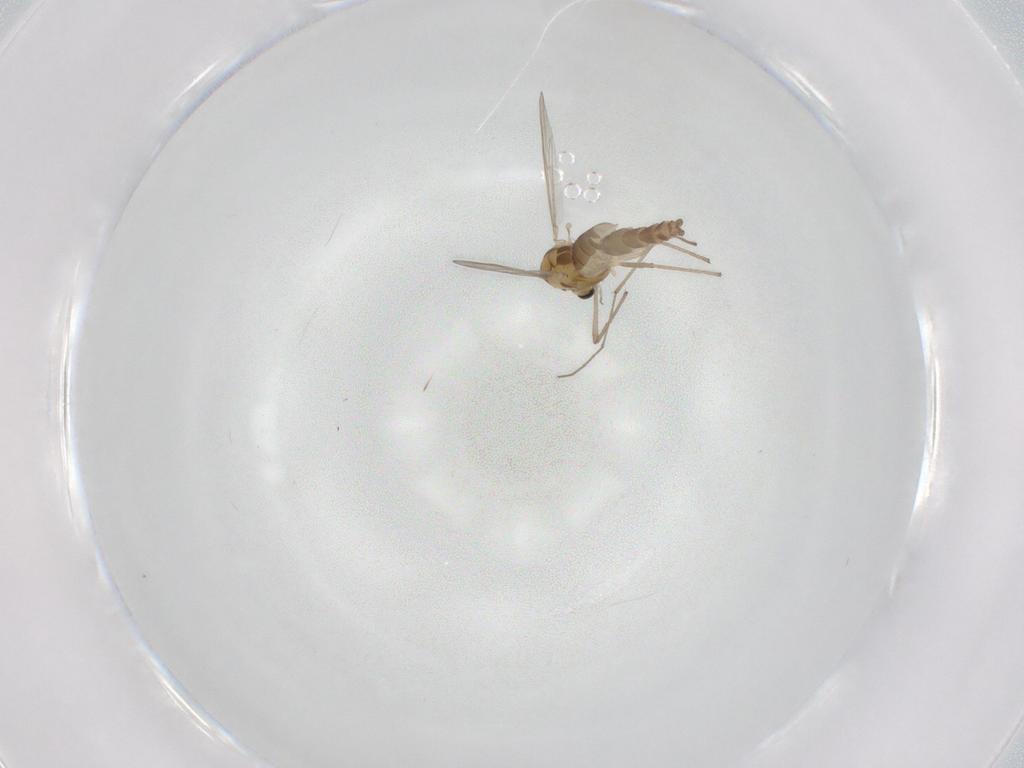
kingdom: Animalia
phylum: Arthropoda
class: Insecta
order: Diptera
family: Chironomidae
